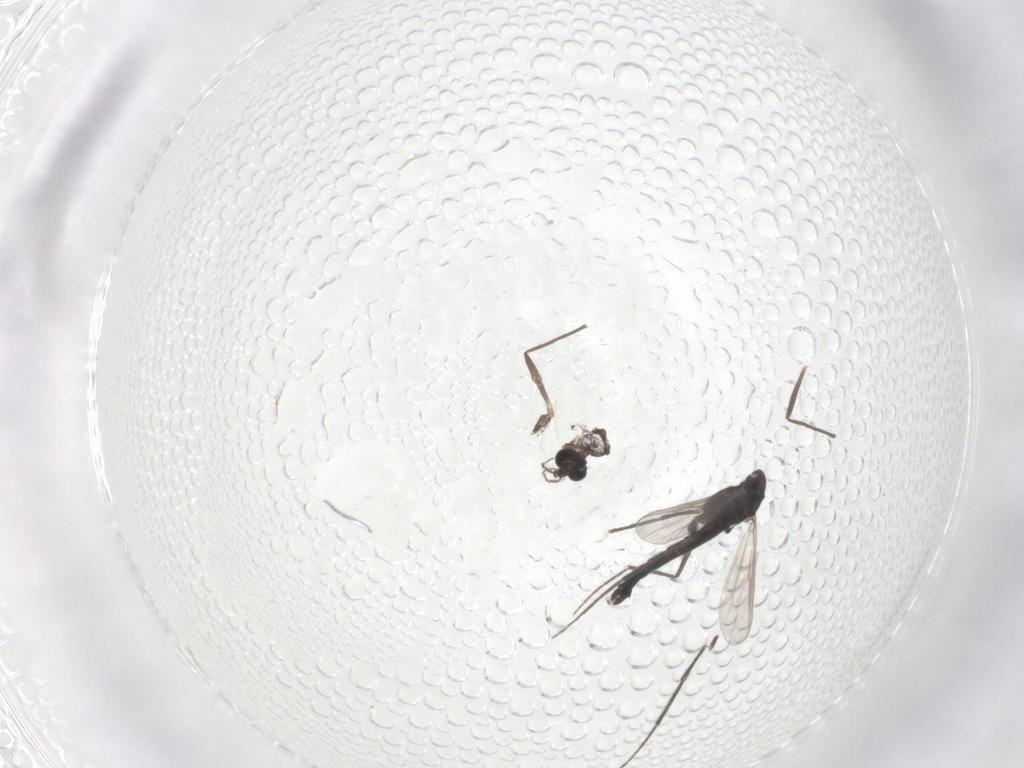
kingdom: Animalia
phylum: Arthropoda
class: Insecta
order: Diptera
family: Chironomidae
